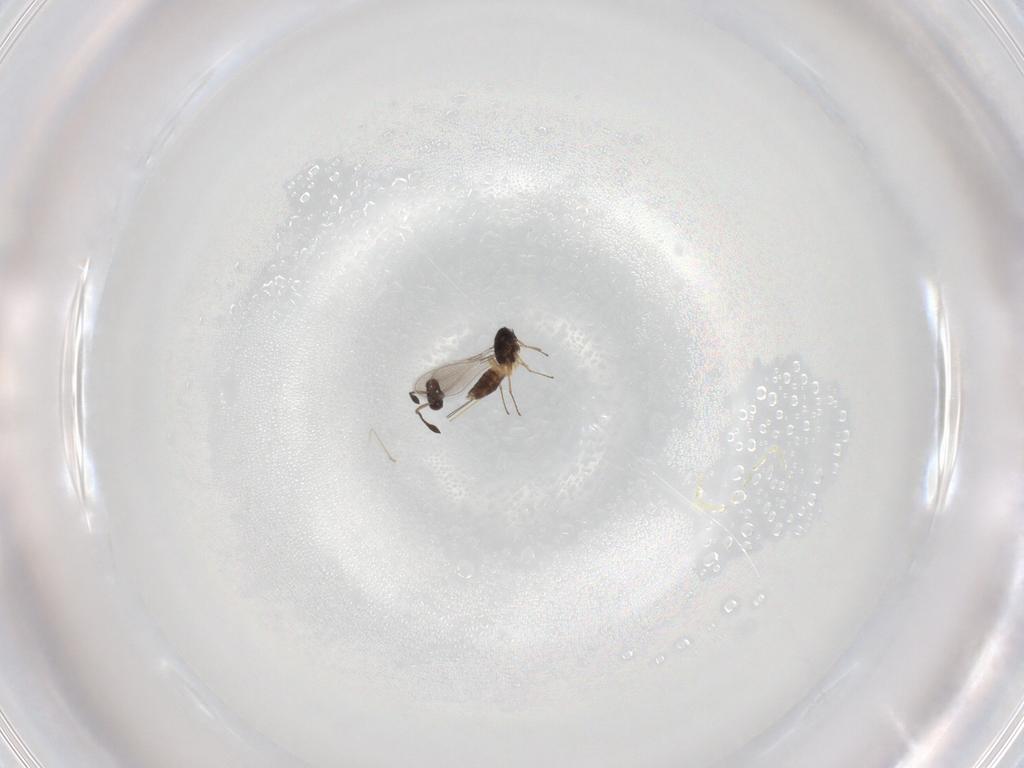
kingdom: Animalia
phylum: Arthropoda
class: Insecta
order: Hymenoptera
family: Mymaridae
